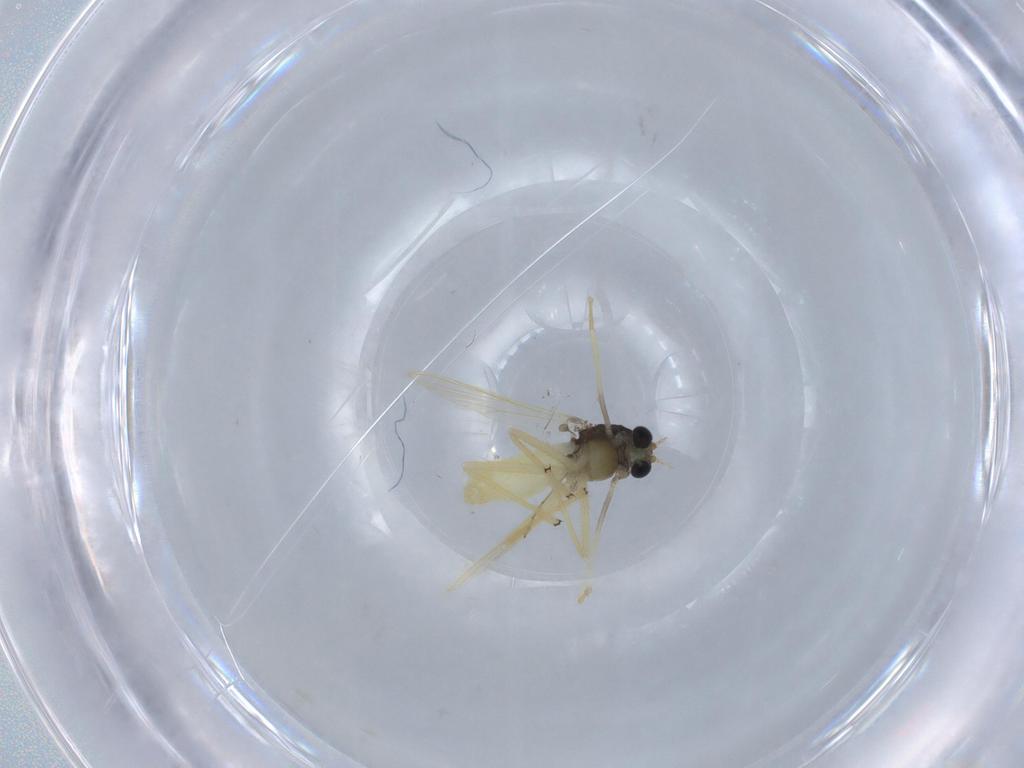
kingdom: Animalia
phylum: Arthropoda
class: Insecta
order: Diptera
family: Chironomidae
